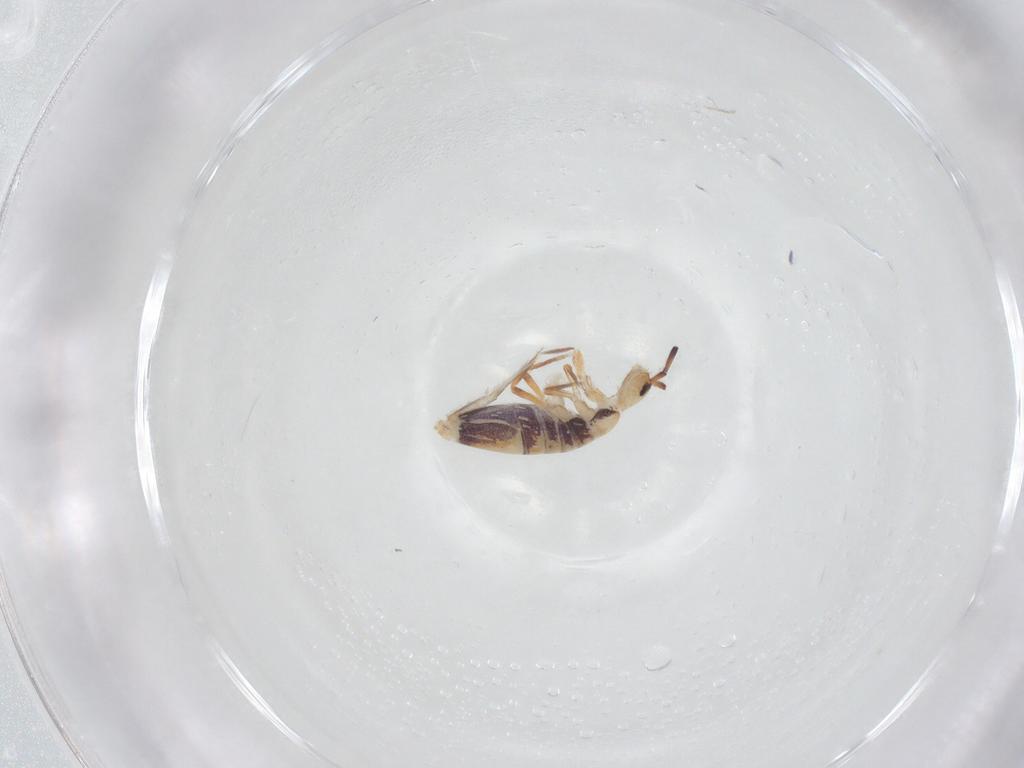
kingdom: Animalia
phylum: Arthropoda
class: Collembola
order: Entomobryomorpha
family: Entomobryidae
